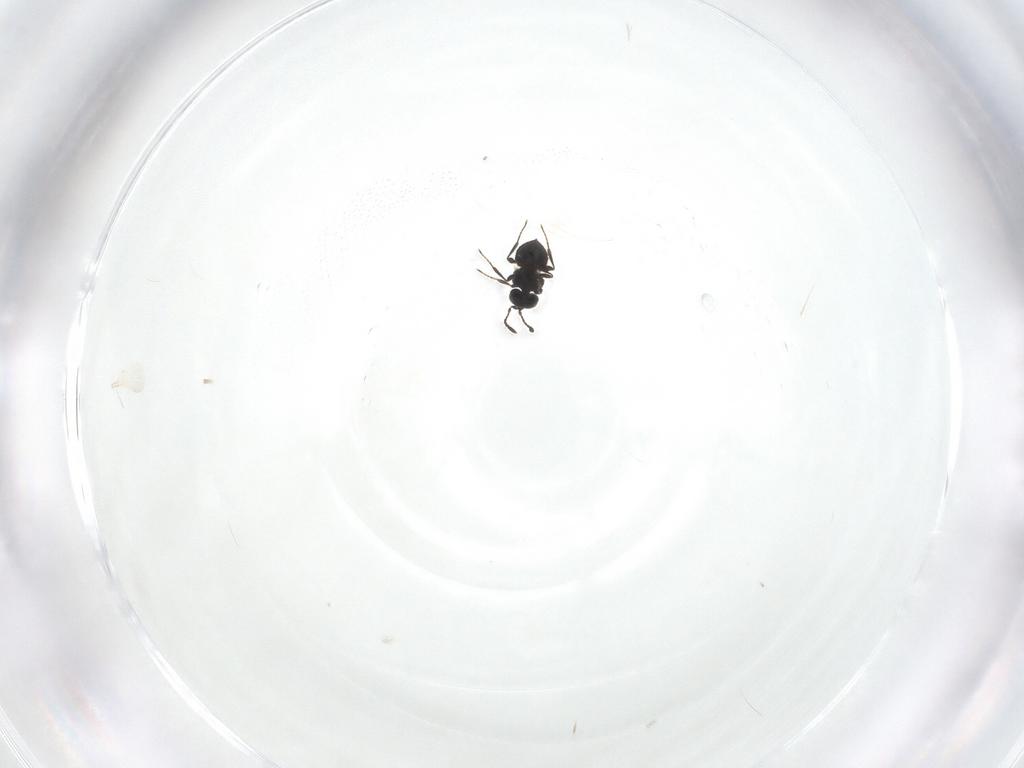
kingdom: Animalia
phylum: Arthropoda
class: Insecta
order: Hymenoptera
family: Platygastridae
